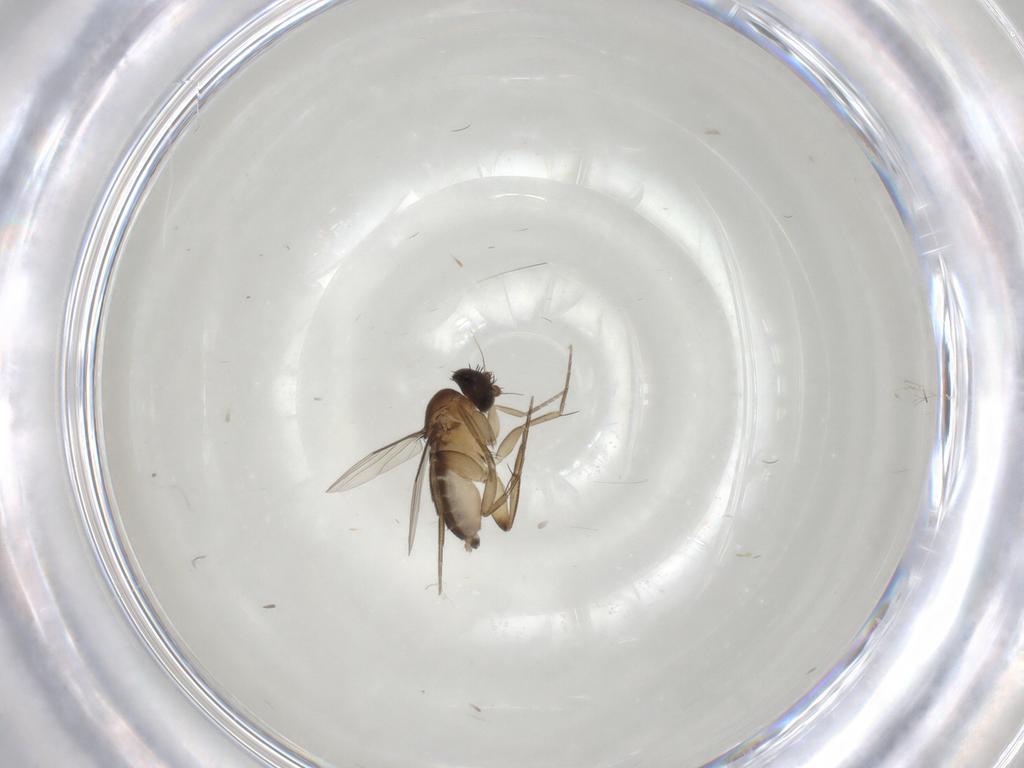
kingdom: Animalia
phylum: Arthropoda
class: Insecta
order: Diptera
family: Phoridae
